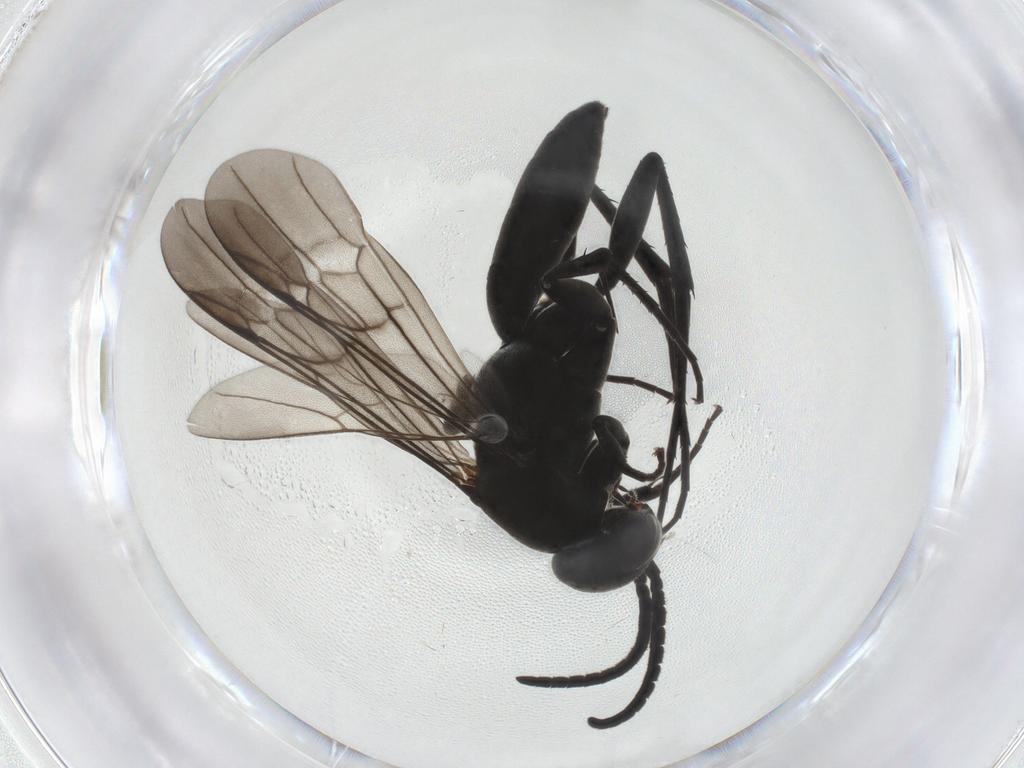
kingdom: Animalia
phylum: Arthropoda
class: Insecta
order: Hymenoptera
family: Pompilidae
